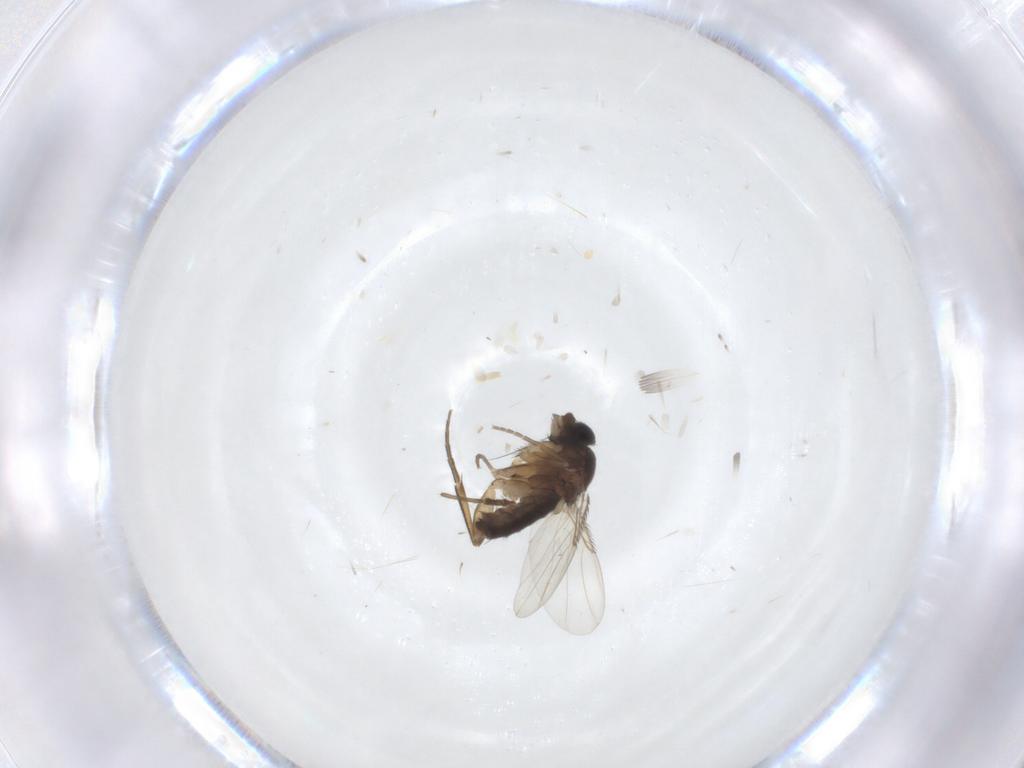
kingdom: Animalia
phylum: Arthropoda
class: Insecta
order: Diptera
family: Phoridae
